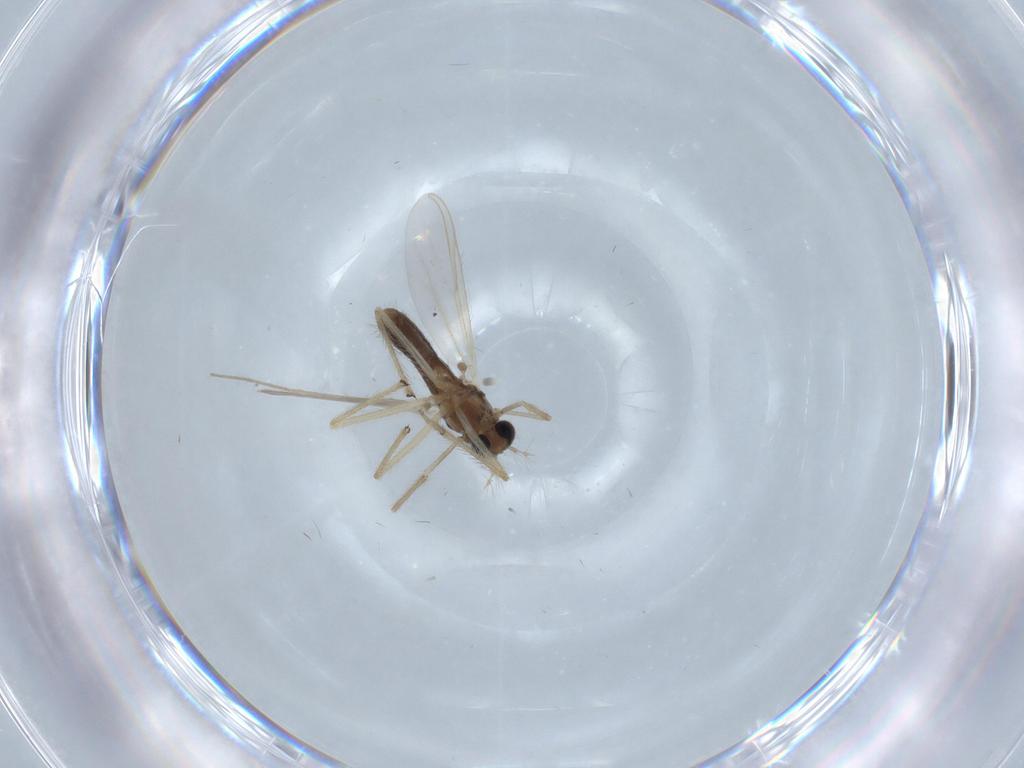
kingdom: Animalia
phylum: Arthropoda
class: Insecta
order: Diptera
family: Chironomidae
